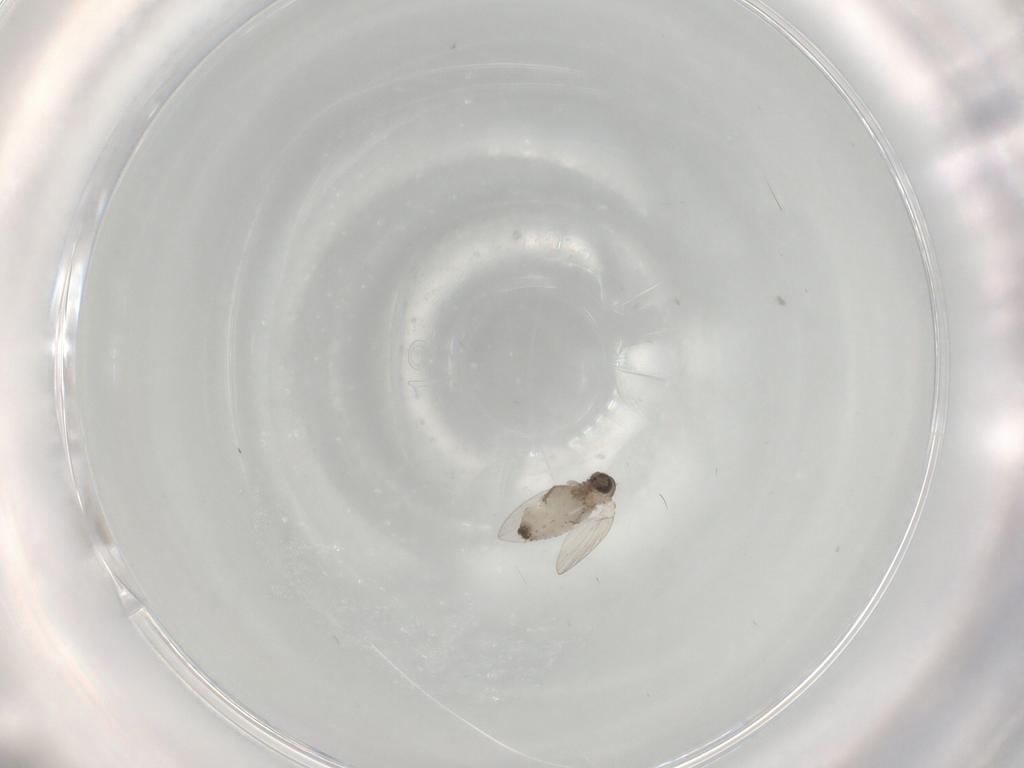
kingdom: Animalia
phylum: Arthropoda
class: Insecta
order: Diptera
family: Psychodidae
